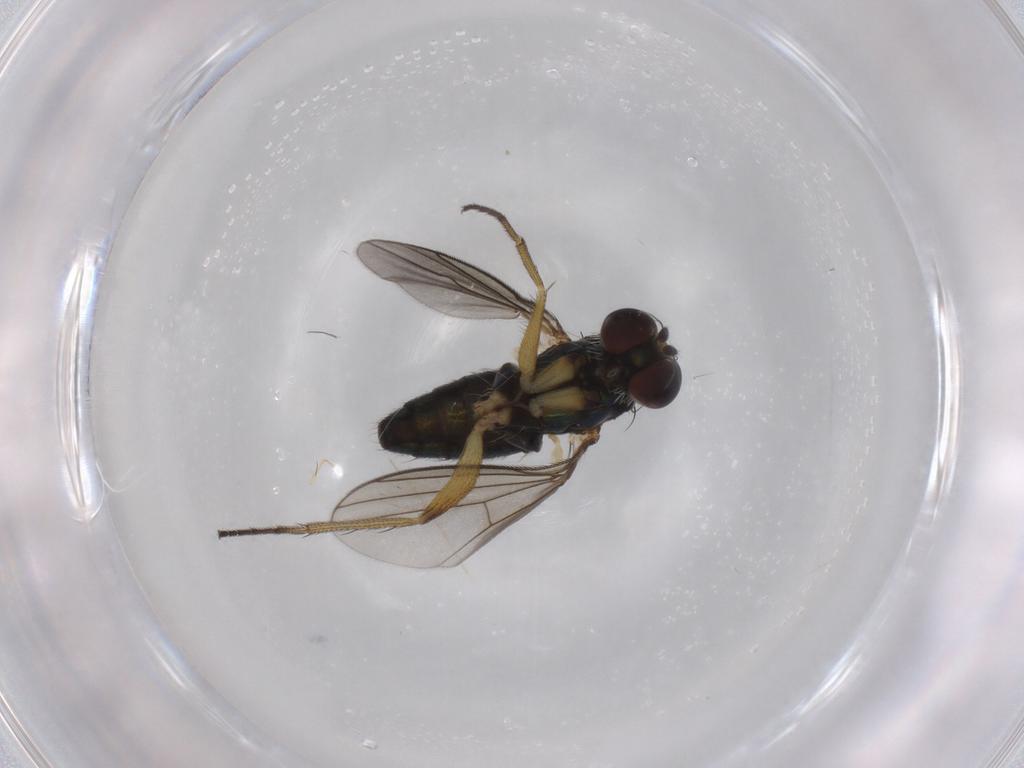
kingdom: Animalia
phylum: Arthropoda
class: Insecta
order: Diptera
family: Dolichopodidae
